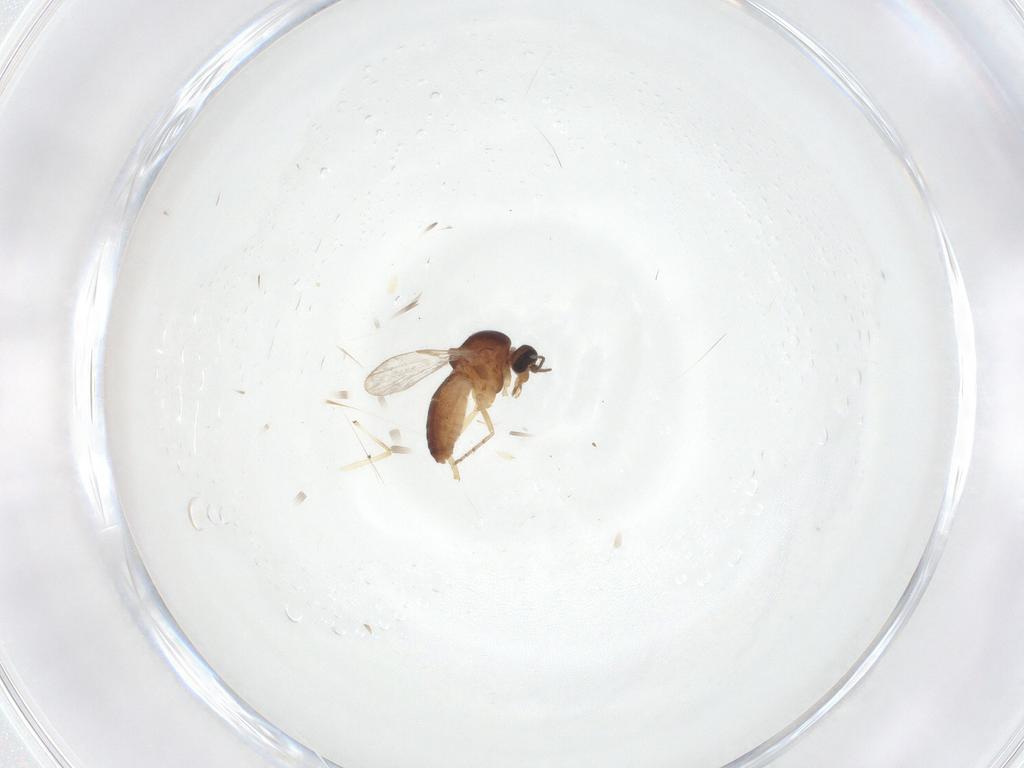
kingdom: Animalia
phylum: Arthropoda
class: Insecta
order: Diptera
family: Ceratopogonidae
